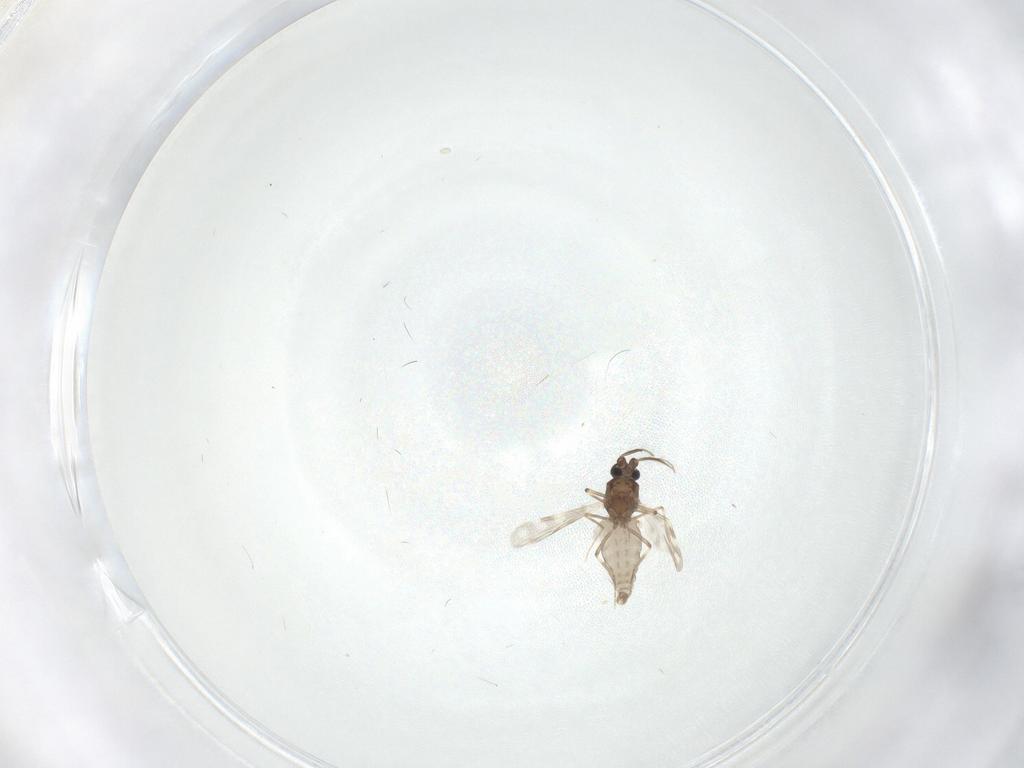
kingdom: Animalia
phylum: Arthropoda
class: Insecta
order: Diptera
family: Ceratopogonidae
